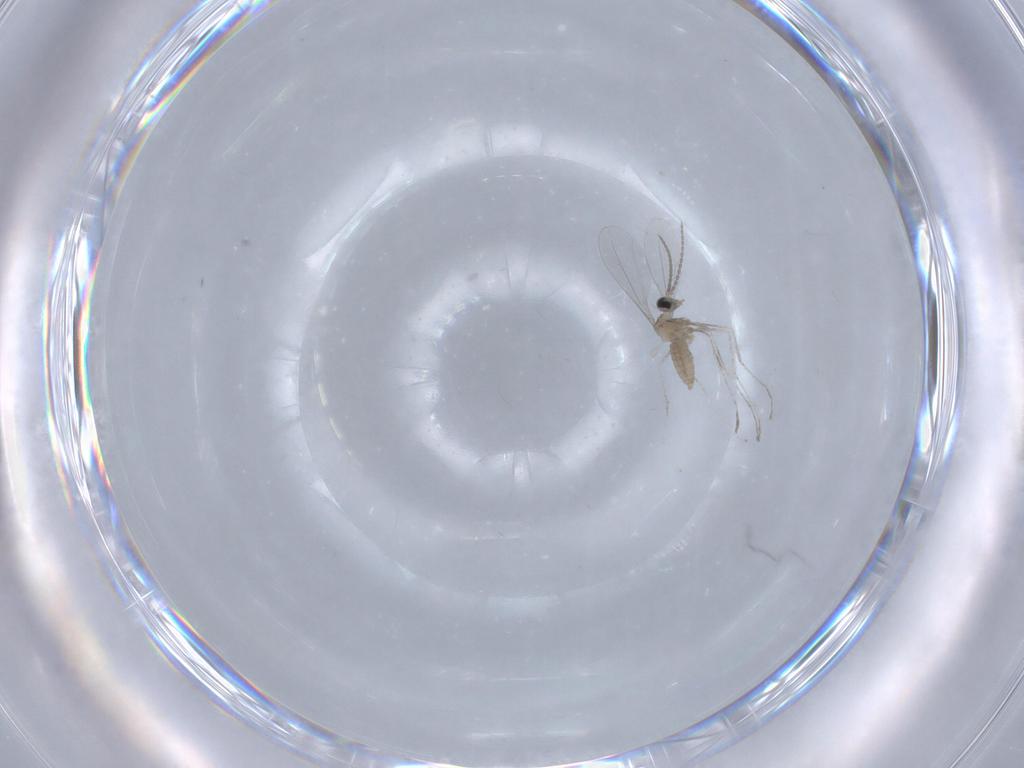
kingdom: Animalia
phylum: Arthropoda
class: Insecta
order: Diptera
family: Cecidomyiidae
